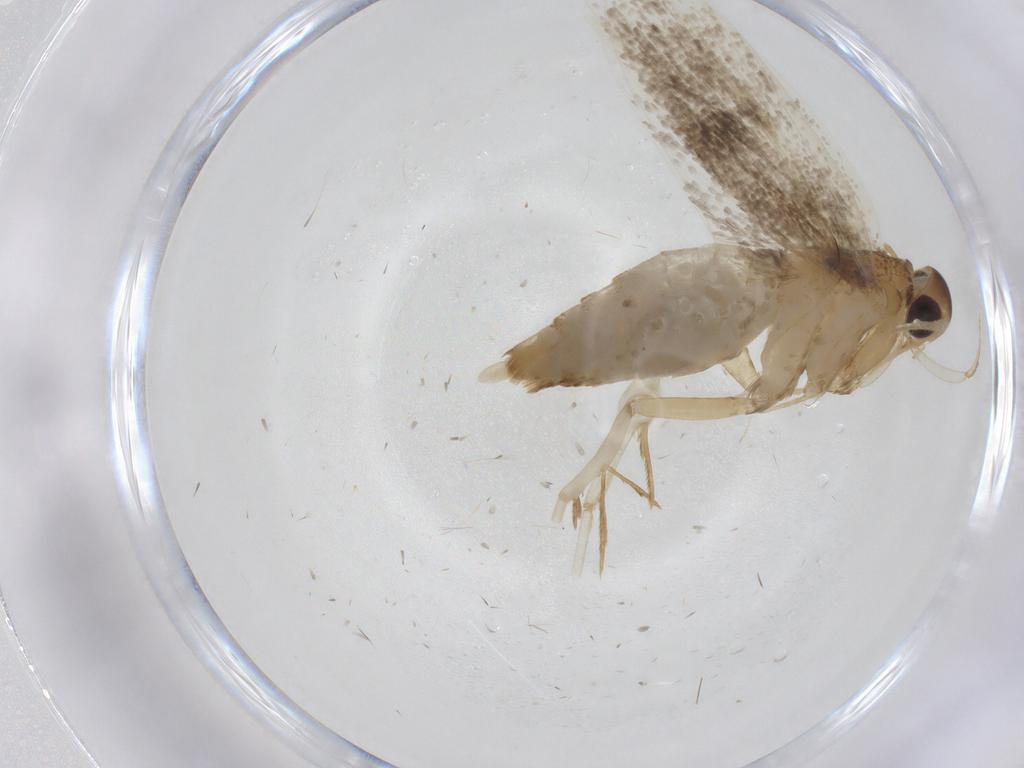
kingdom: Animalia
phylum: Arthropoda
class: Insecta
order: Lepidoptera
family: Lecithoceridae
